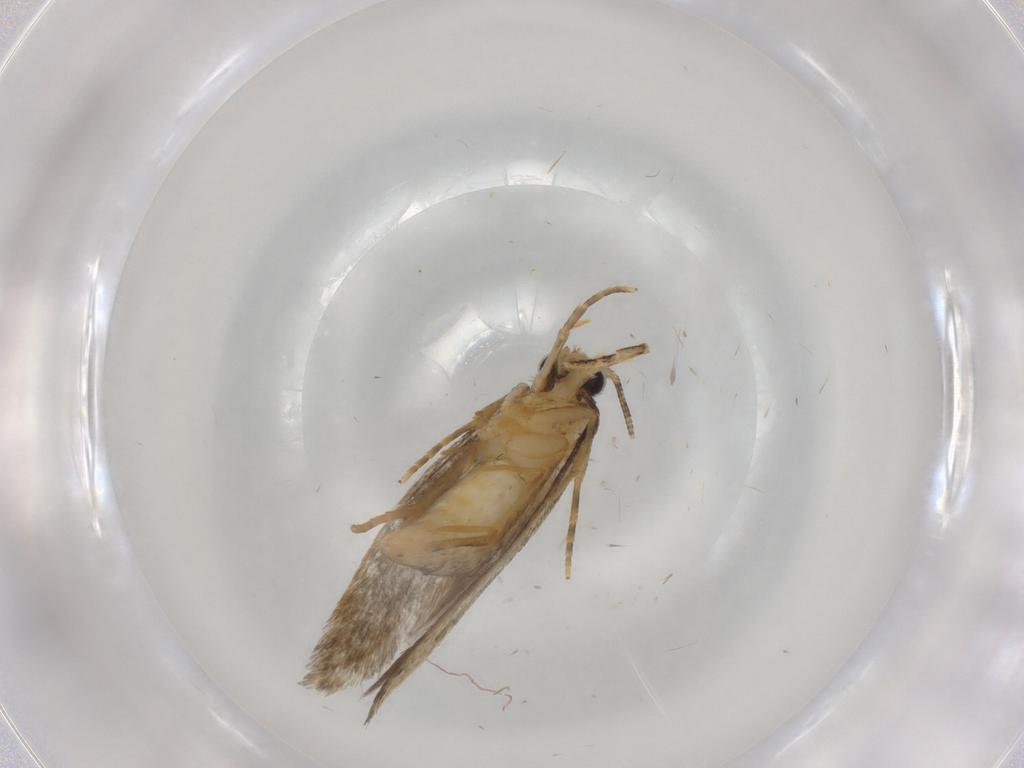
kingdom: Animalia
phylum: Arthropoda
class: Insecta
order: Lepidoptera
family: Tineidae
